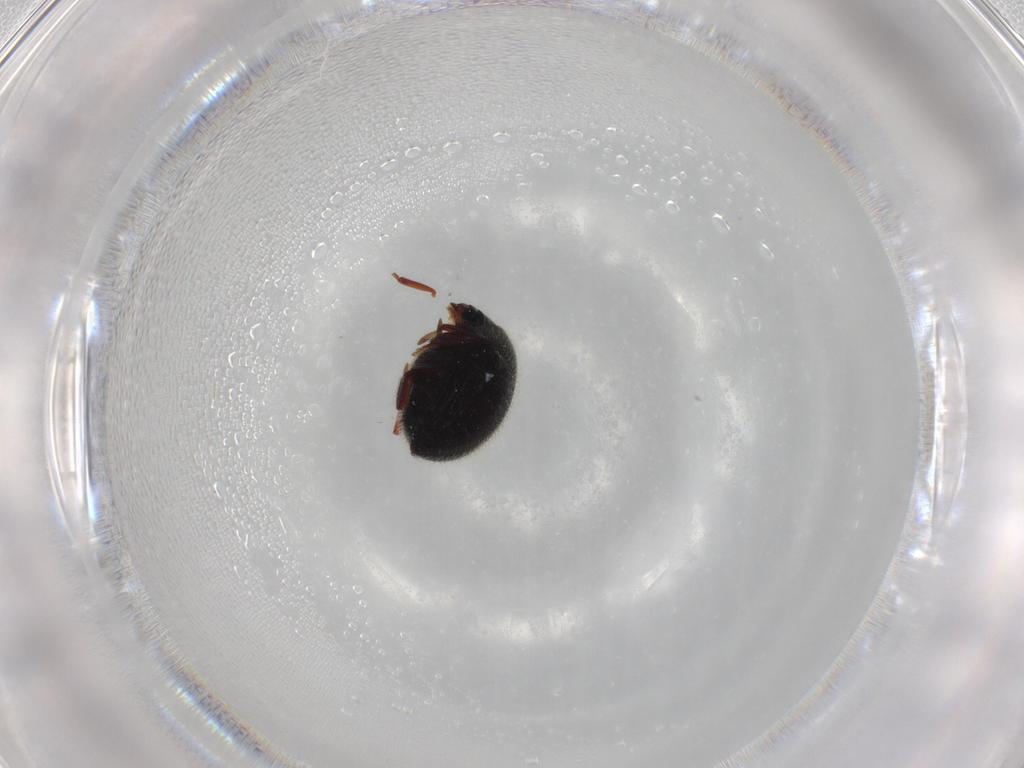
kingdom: Animalia
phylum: Arthropoda
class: Insecta
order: Coleoptera
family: Ptinidae
